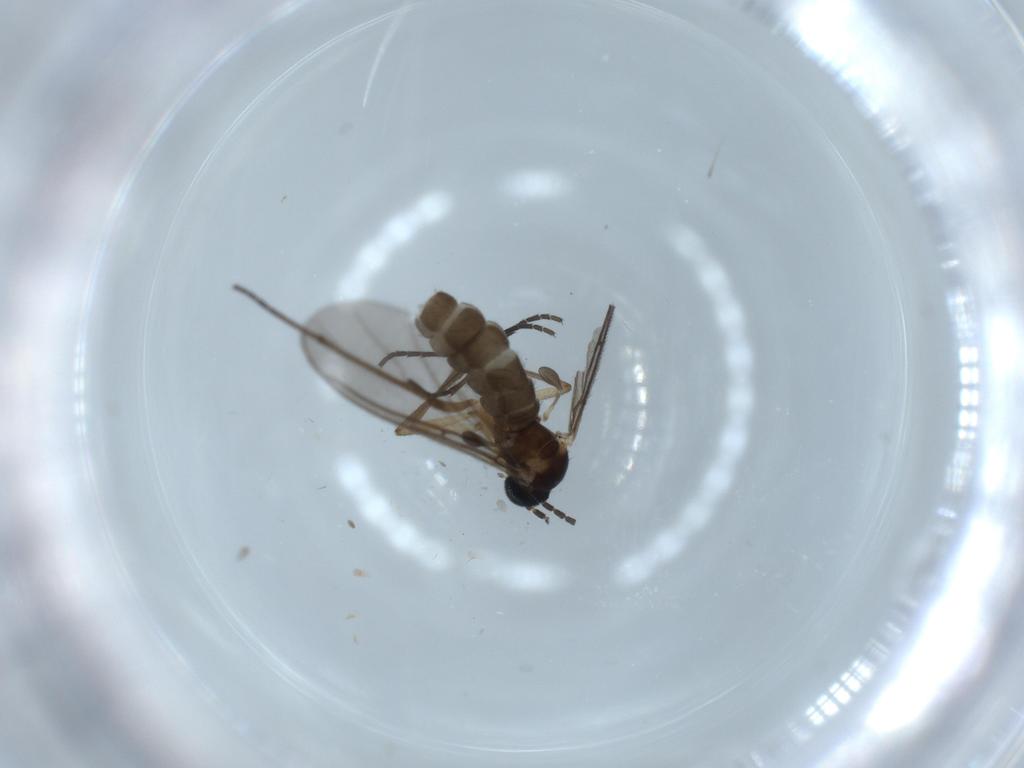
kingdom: Animalia
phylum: Arthropoda
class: Insecta
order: Diptera
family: Sciaridae
